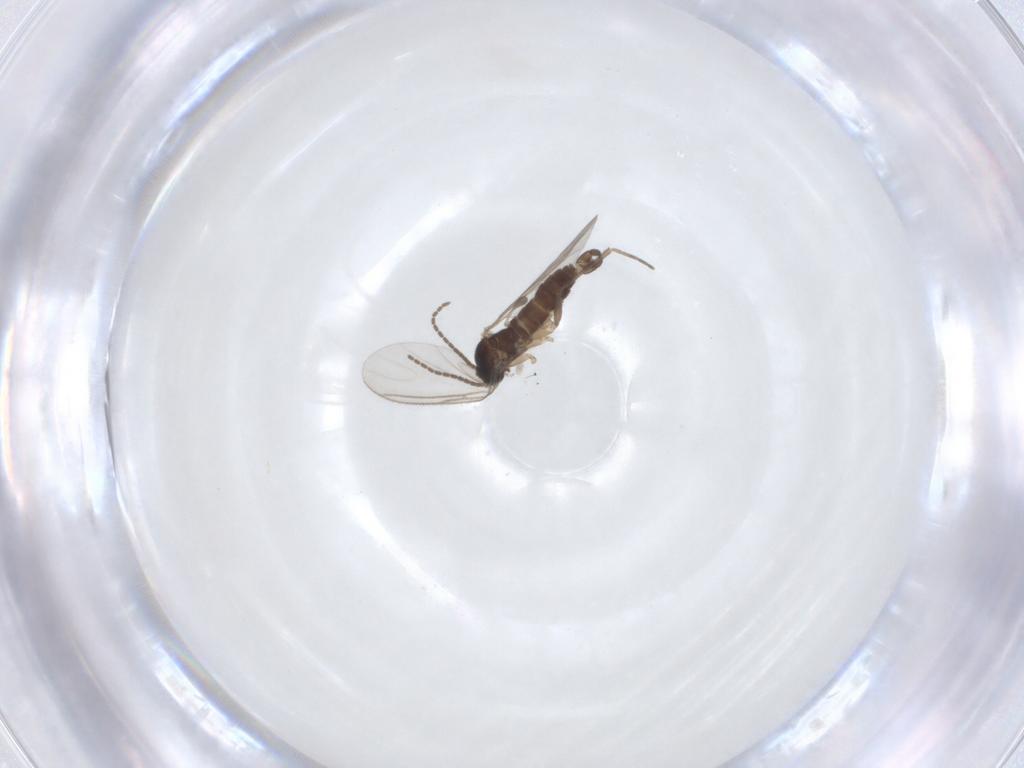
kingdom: Animalia
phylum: Arthropoda
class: Insecta
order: Diptera
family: Sciaridae
